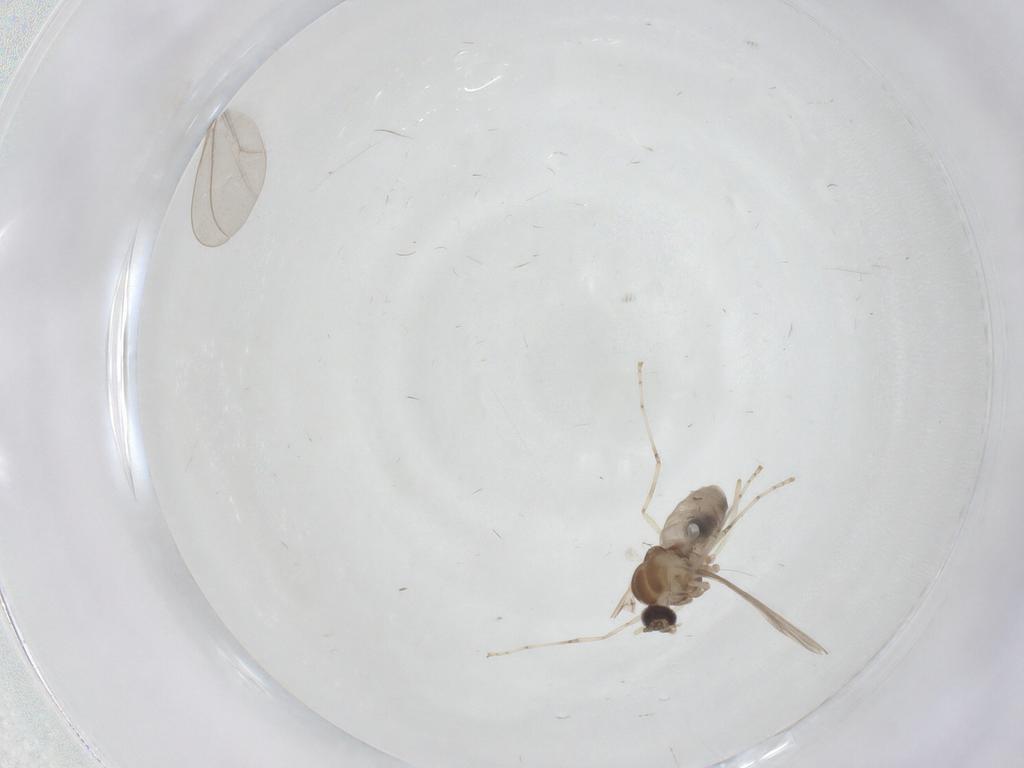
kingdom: Animalia
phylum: Arthropoda
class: Insecta
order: Diptera
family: Cecidomyiidae
